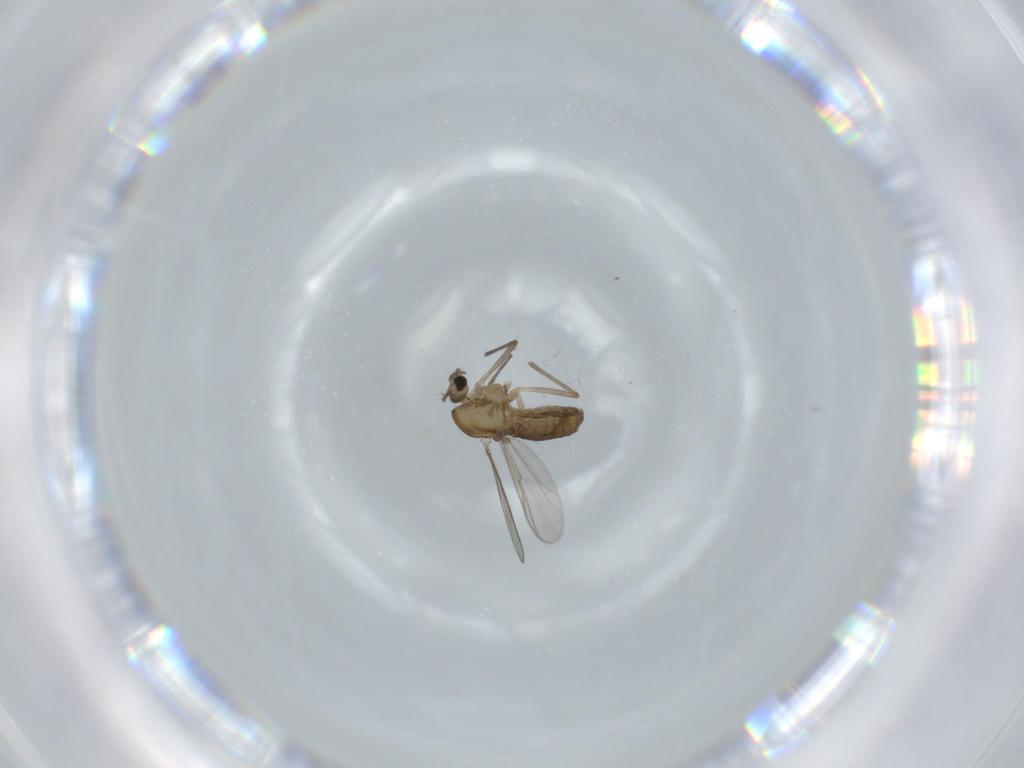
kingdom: Animalia
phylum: Arthropoda
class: Insecta
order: Diptera
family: Chironomidae
